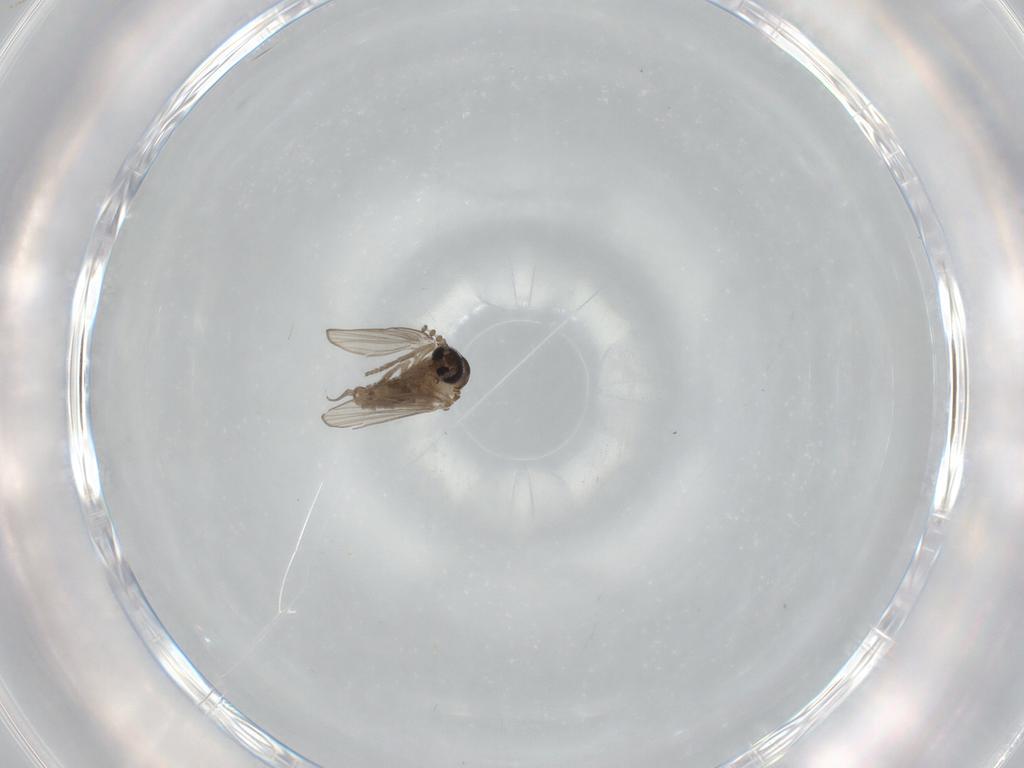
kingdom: Animalia
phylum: Arthropoda
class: Insecta
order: Diptera
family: Psychodidae
